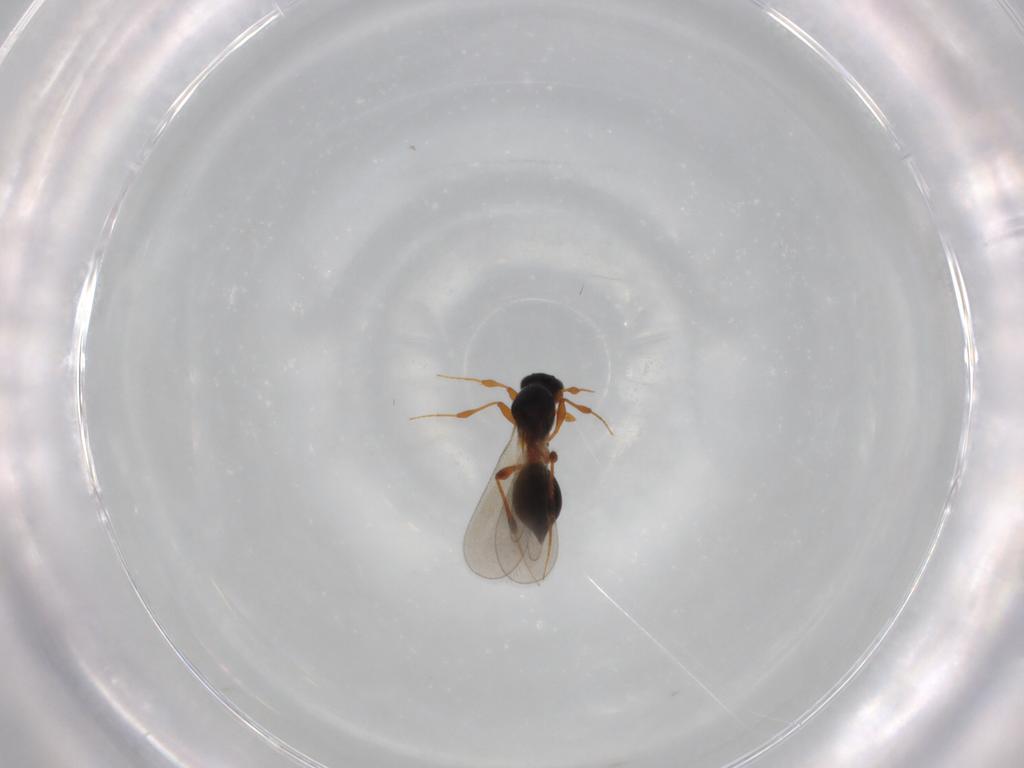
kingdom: Animalia
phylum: Arthropoda
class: Insecta
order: Hymenoptera
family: Platygastridae
